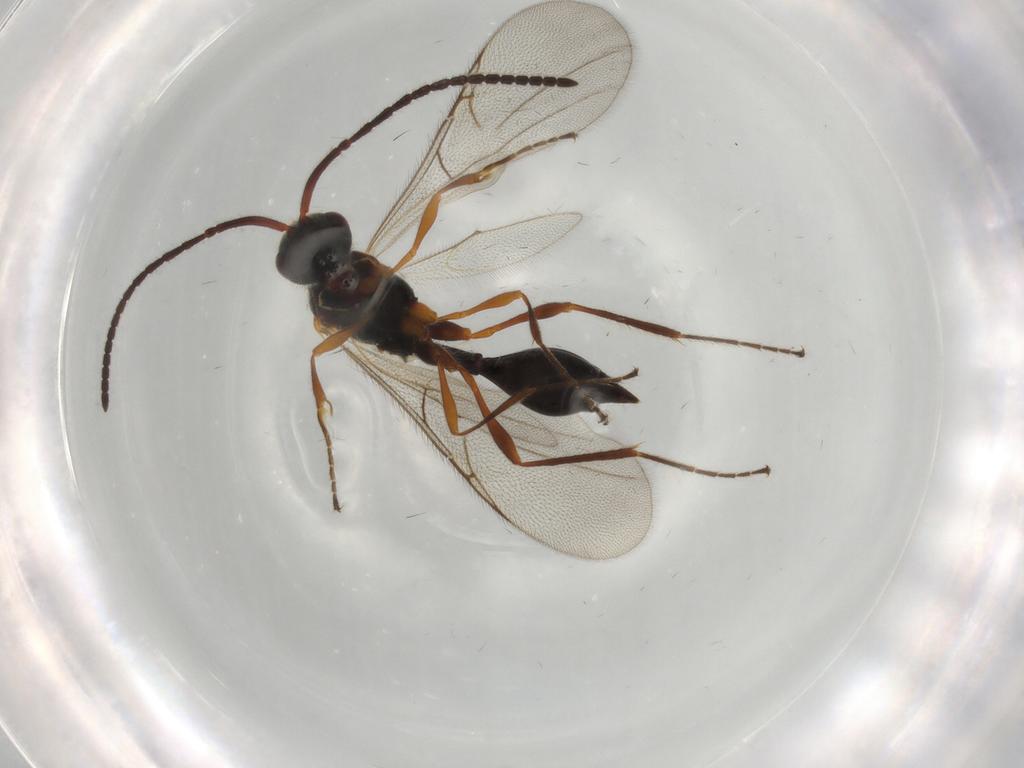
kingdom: Animalia
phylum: Arthropoda
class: Insecta
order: Hymenoptera
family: Diapriidae
